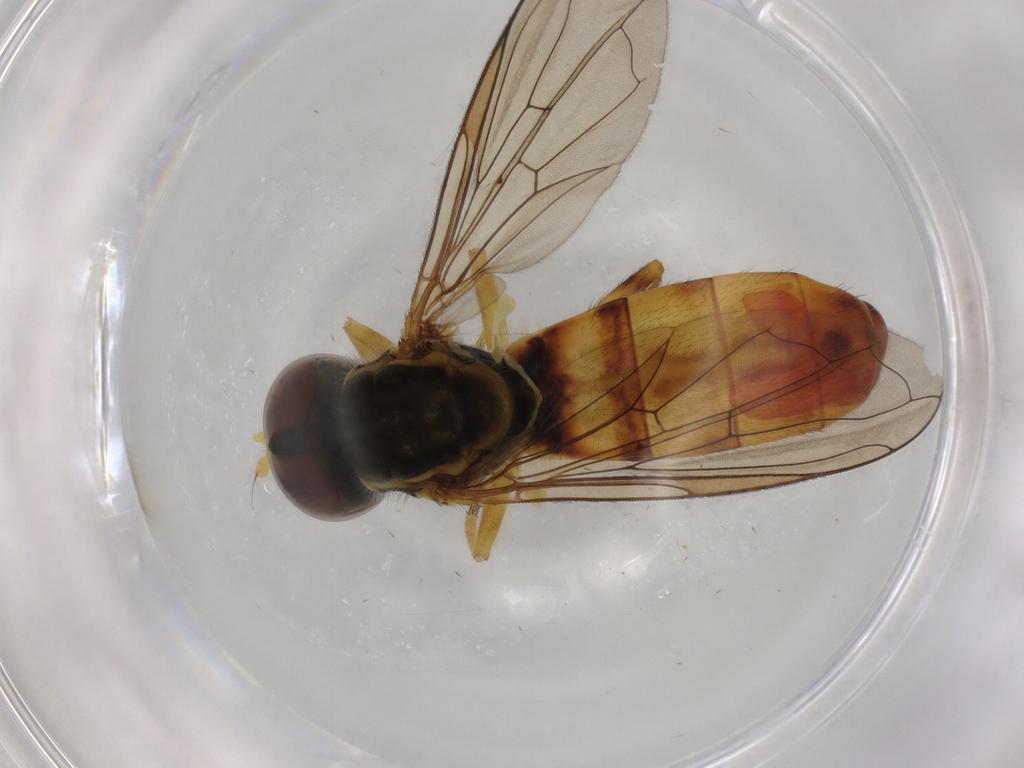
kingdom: Animalia
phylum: Arthropoda
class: Insecta
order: Diptera
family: Syrphidae
